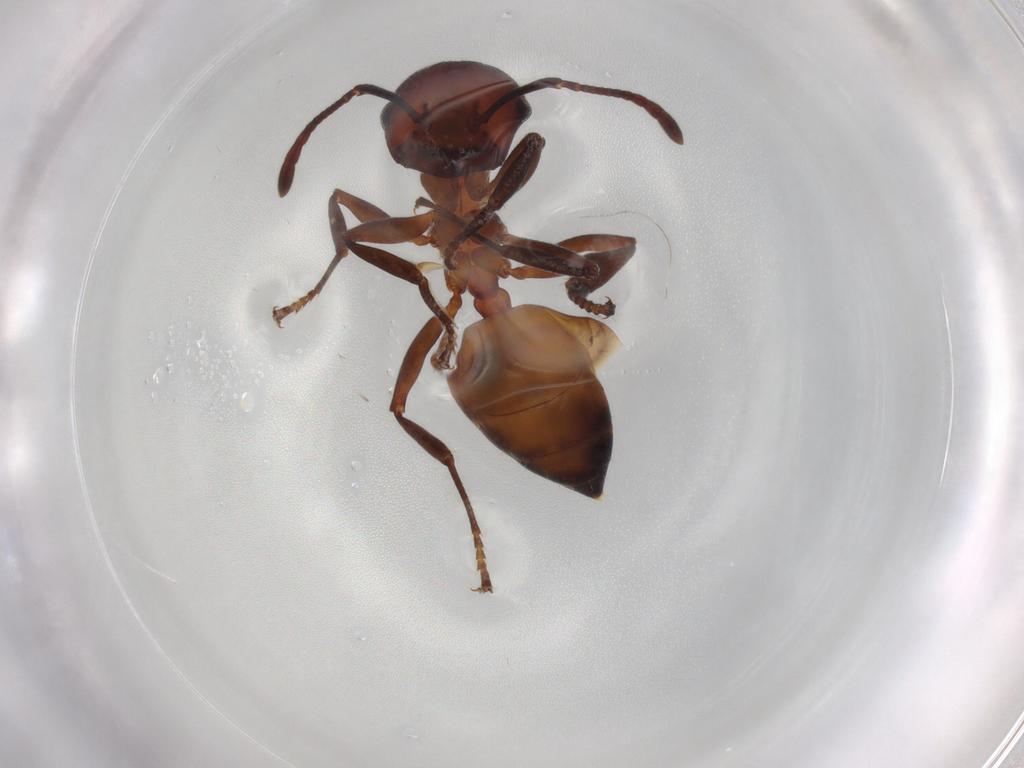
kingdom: Animalia
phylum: Arthropoda
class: Insecta
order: Hymenoptera
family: Formicidae
